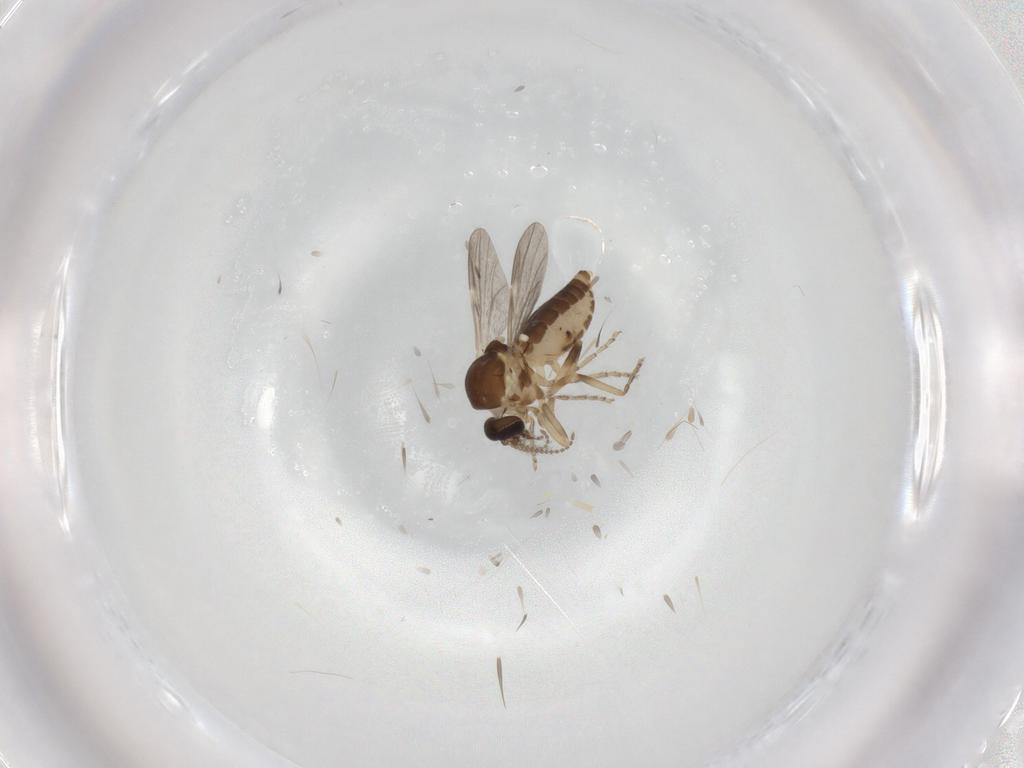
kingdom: Animalia
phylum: Arthropoda
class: Insecta
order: Diptera
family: Ceratopogonidae
